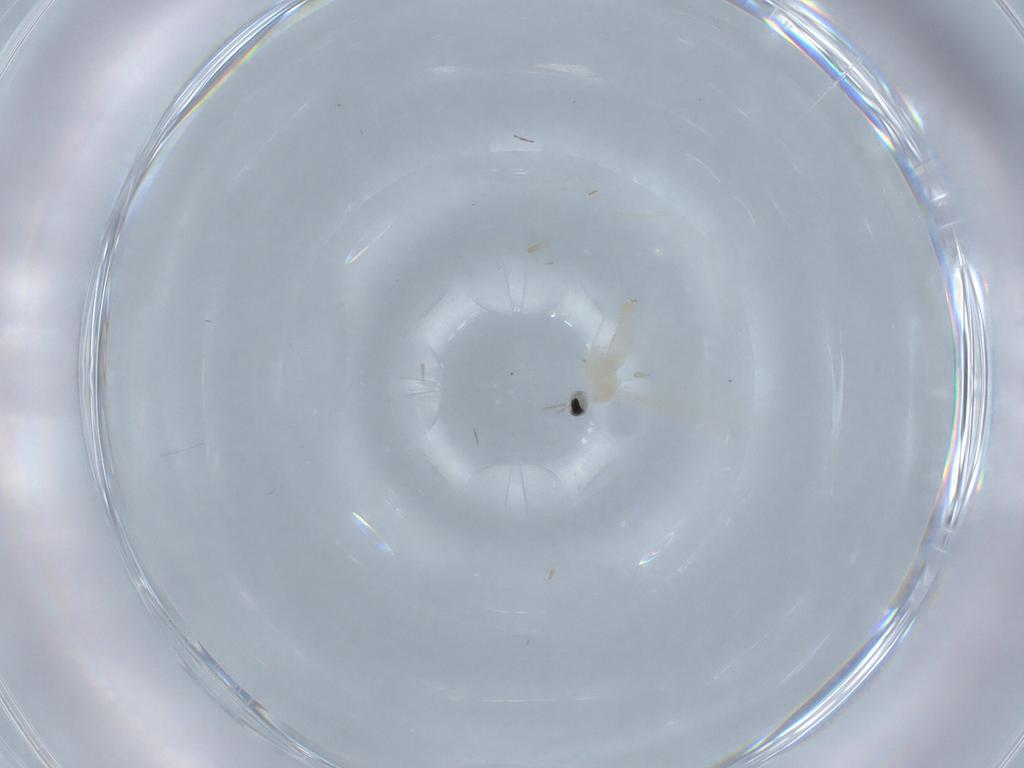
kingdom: Animalia
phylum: Arthropoda
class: Insecta
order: Diptera
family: Cecidomyiidae
